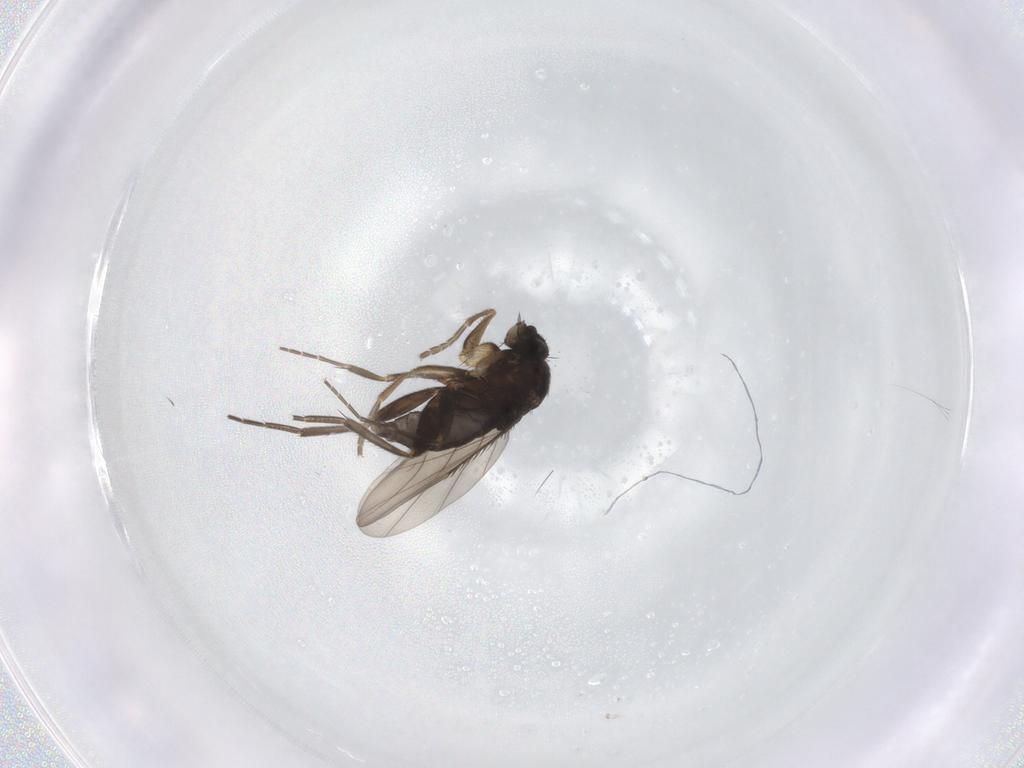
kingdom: Animalia
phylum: Arthropoda
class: Insecta
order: Diptera
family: Phoridae
